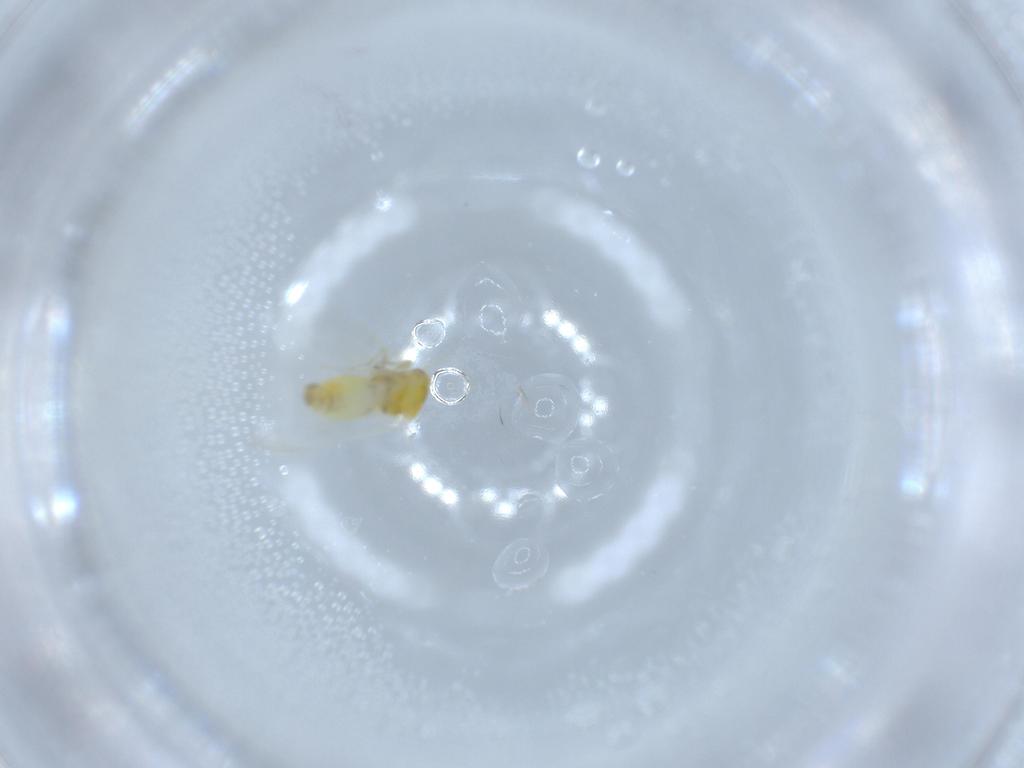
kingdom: Animalia
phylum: Arthropoda
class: Insecta
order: Hemiptera
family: Aleyrodidae
